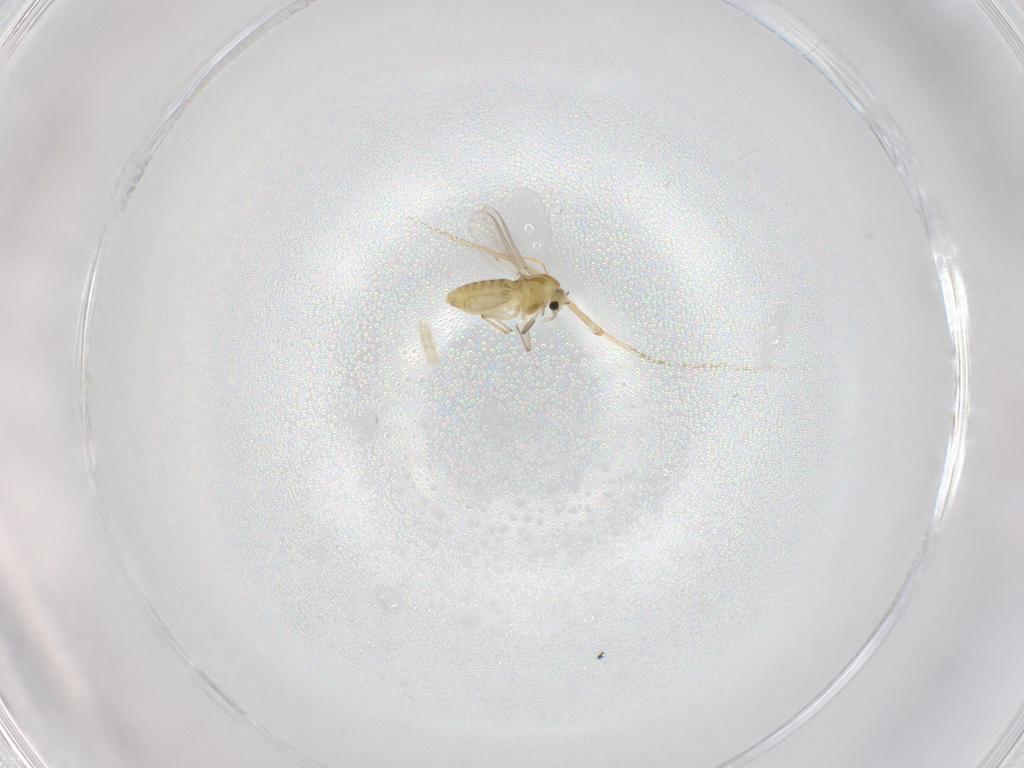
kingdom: Animalia
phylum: Arthropoda
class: Insecta
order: Diptera
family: Chironomidae
